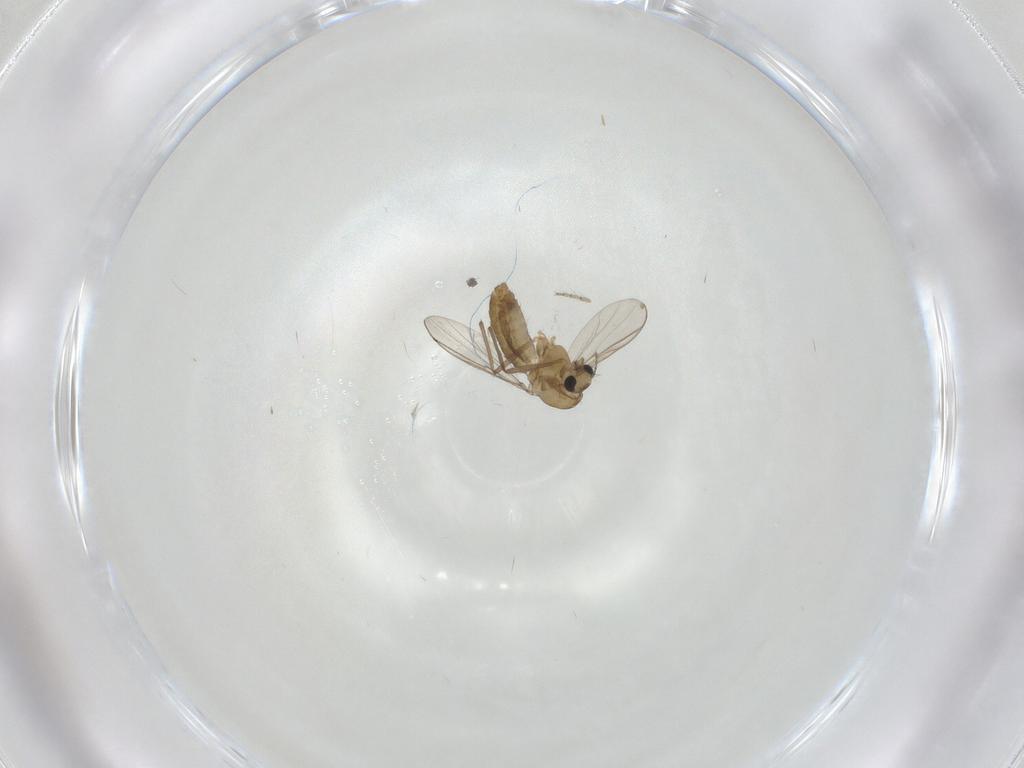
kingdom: Animalia
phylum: Arthropoda
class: Insecta
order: Diptera
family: Chironomidae
